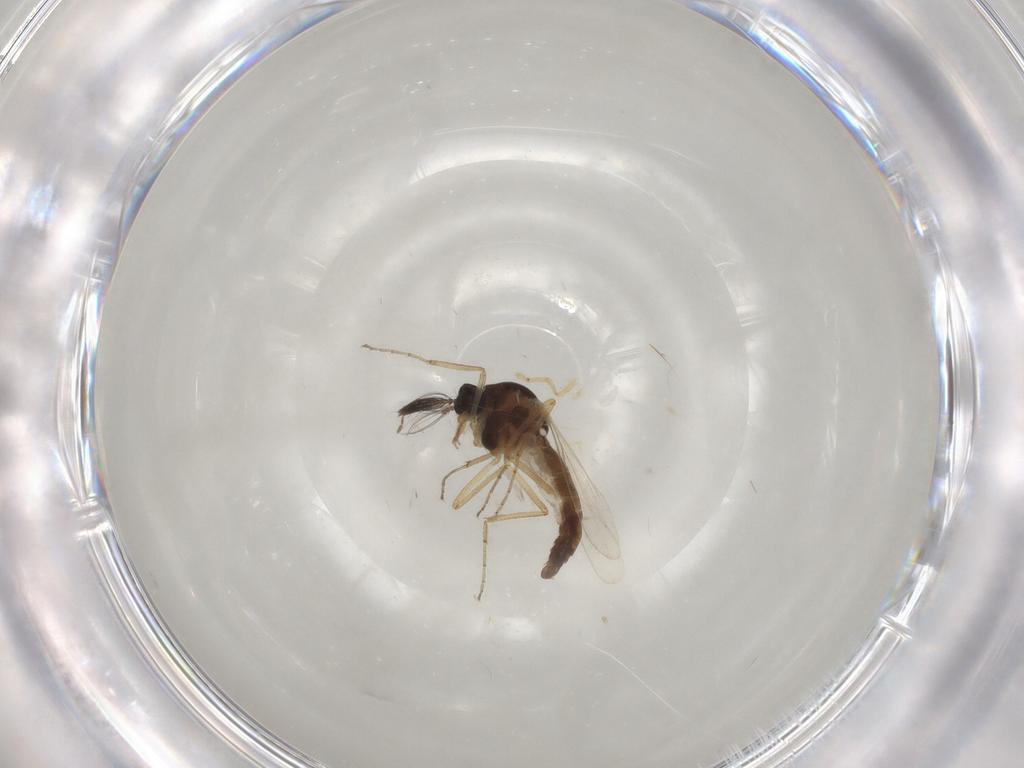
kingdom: Animalia
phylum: Arthropoda
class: Insecta
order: Diptera
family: Ceratopogonidae
